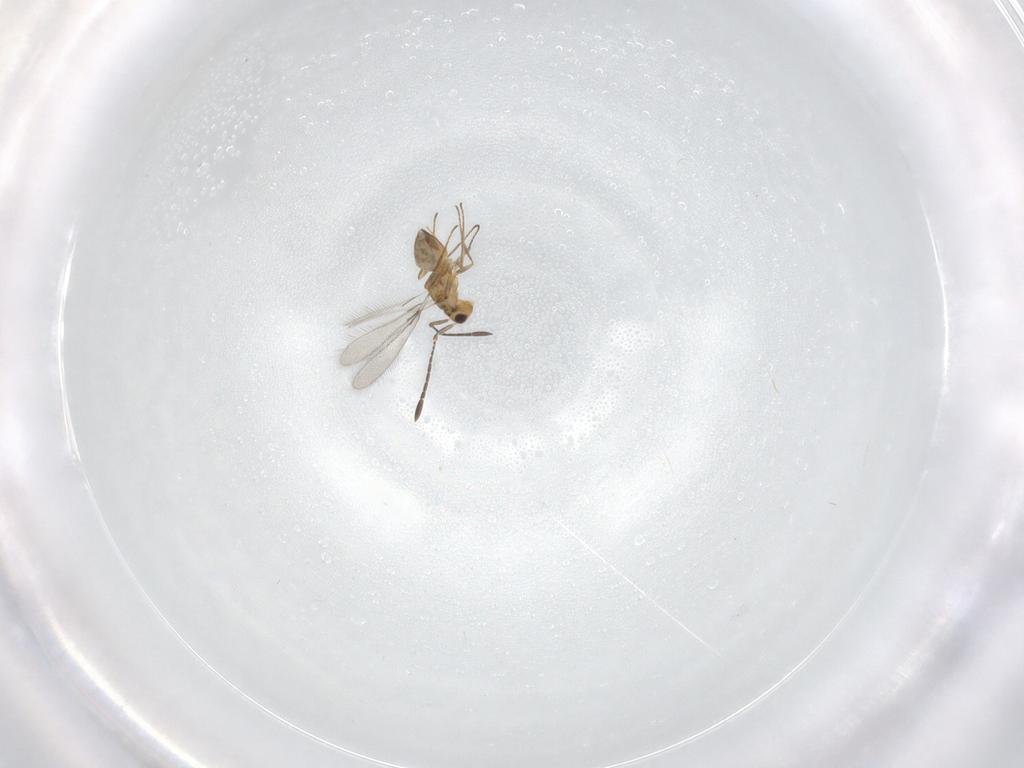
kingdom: Animalia
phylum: Arthropoda
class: Insecta
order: Hymenoptera
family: Mymaridae
